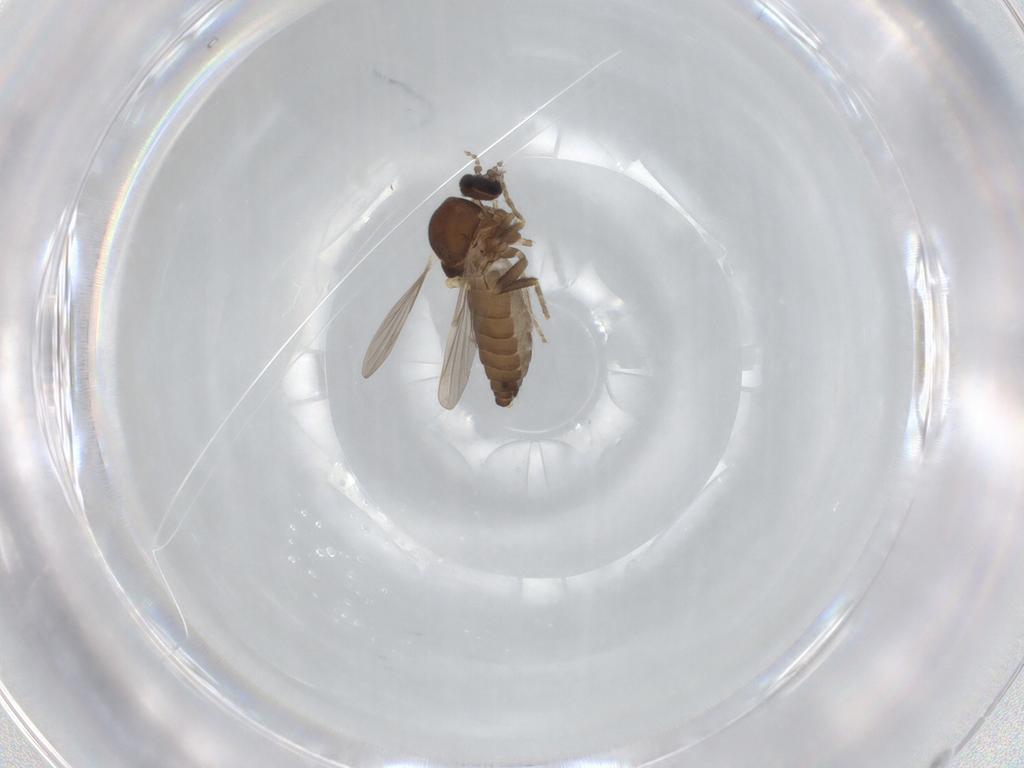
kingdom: Animalia
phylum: Arthropoda
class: Insecta
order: Diptera
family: Ceratopogonidae
